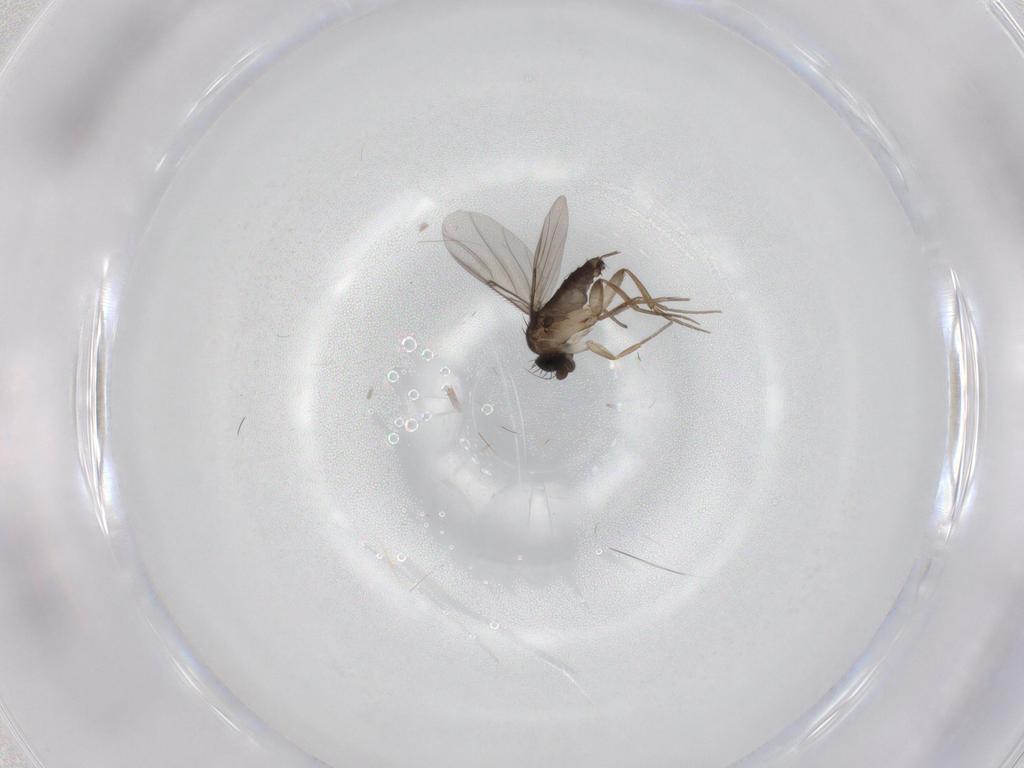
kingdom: Animalia
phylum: Arthropoda
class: Insecta
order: Diptera
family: Phoridae
